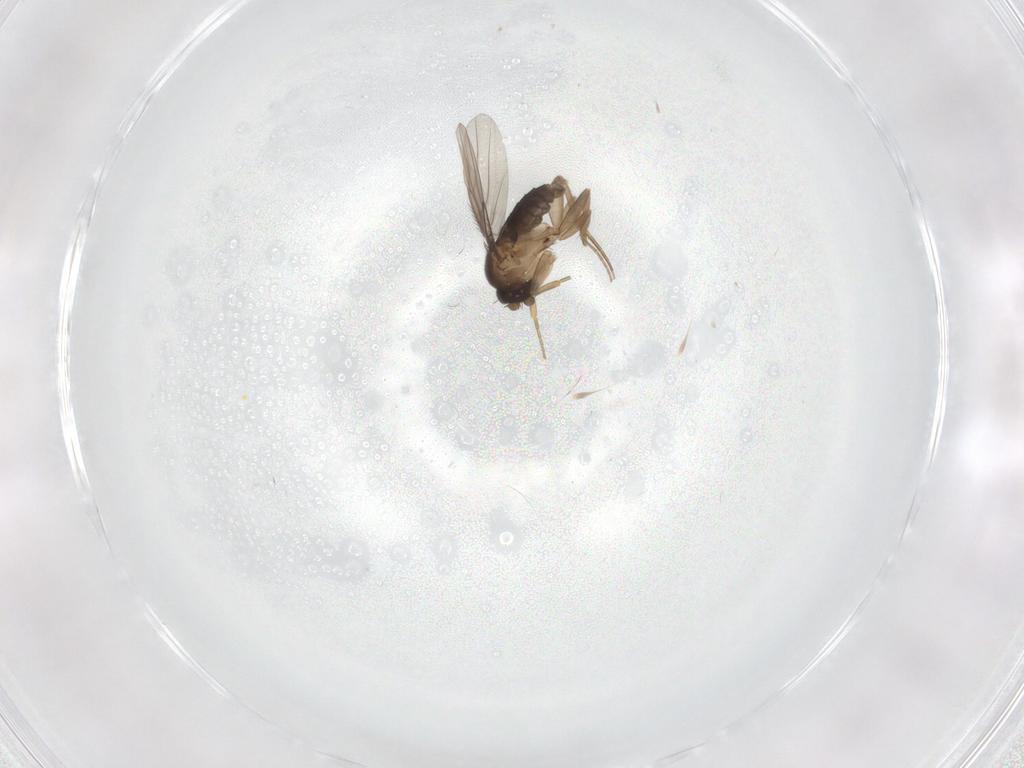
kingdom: Animalia
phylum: Arthropoda
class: Insecta
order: Diptera
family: Phoridae
